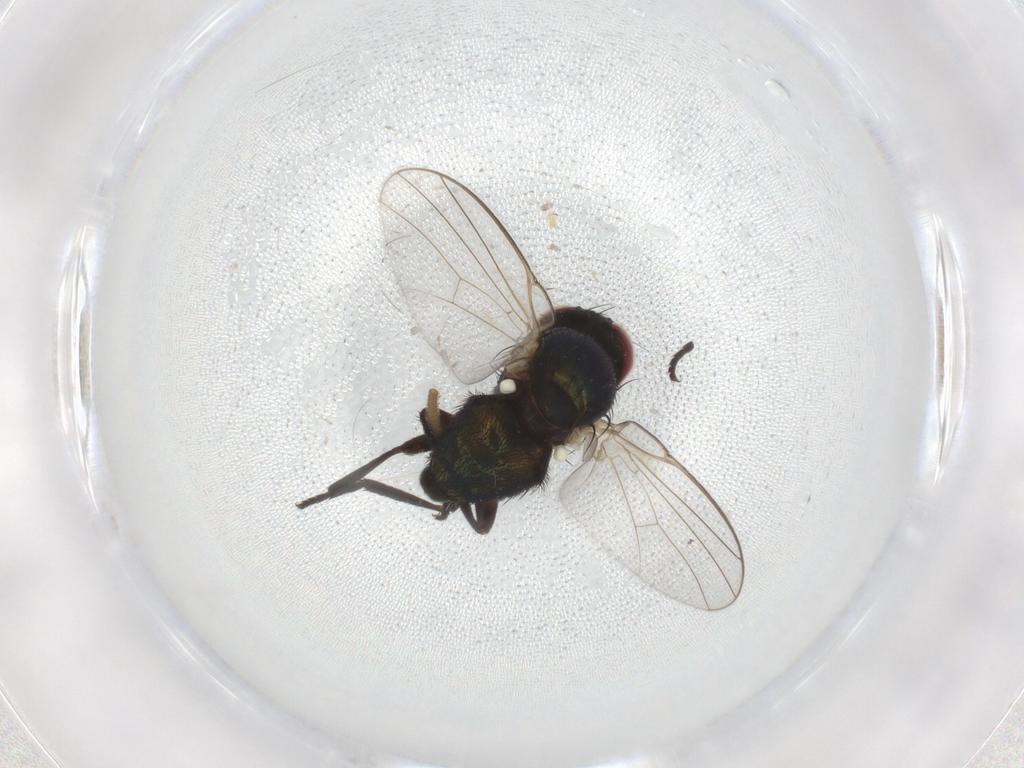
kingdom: Animalia
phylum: Arthropoda
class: Insecta
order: Diptera
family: Agromyzidae
